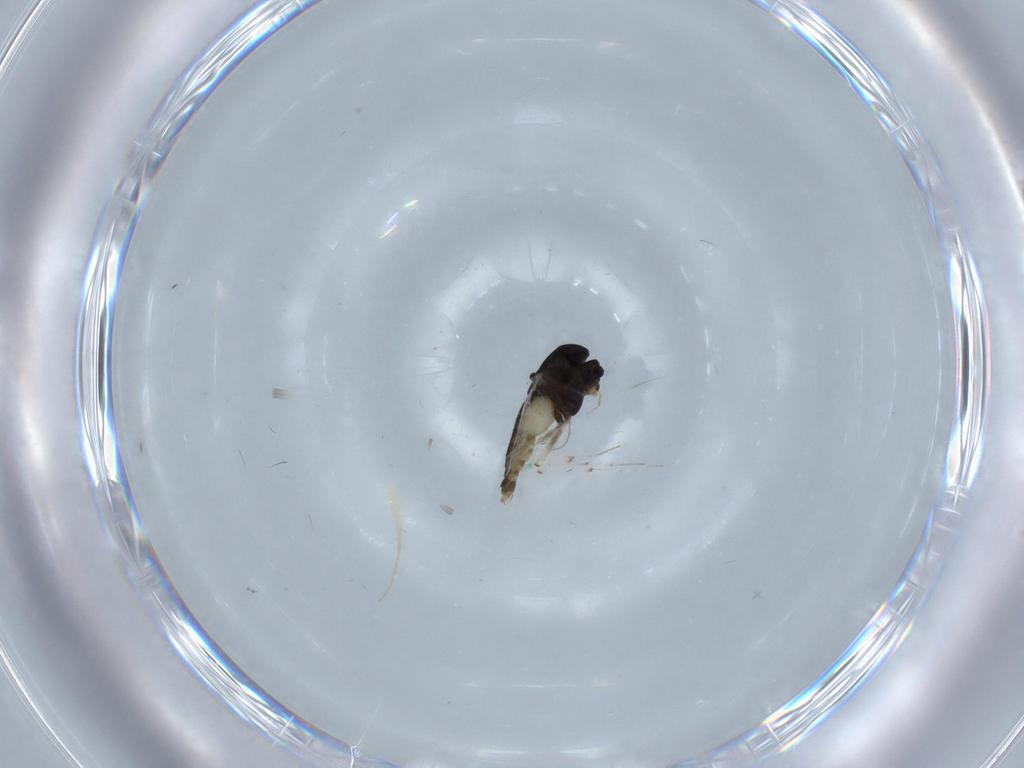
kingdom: Animalia
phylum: Arthropoda
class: Insecta
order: Diptera
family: Chironomidae
